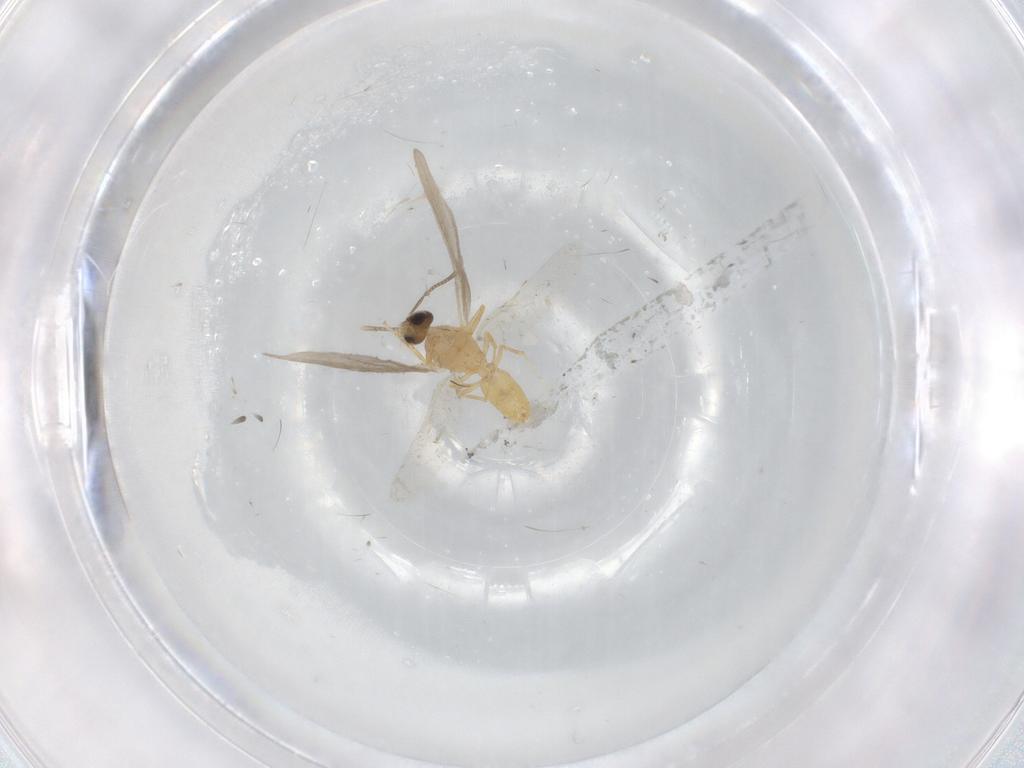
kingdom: Animalia
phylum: Arthropoda
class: Insecta
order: Diptera
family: Cecidomyiidae
